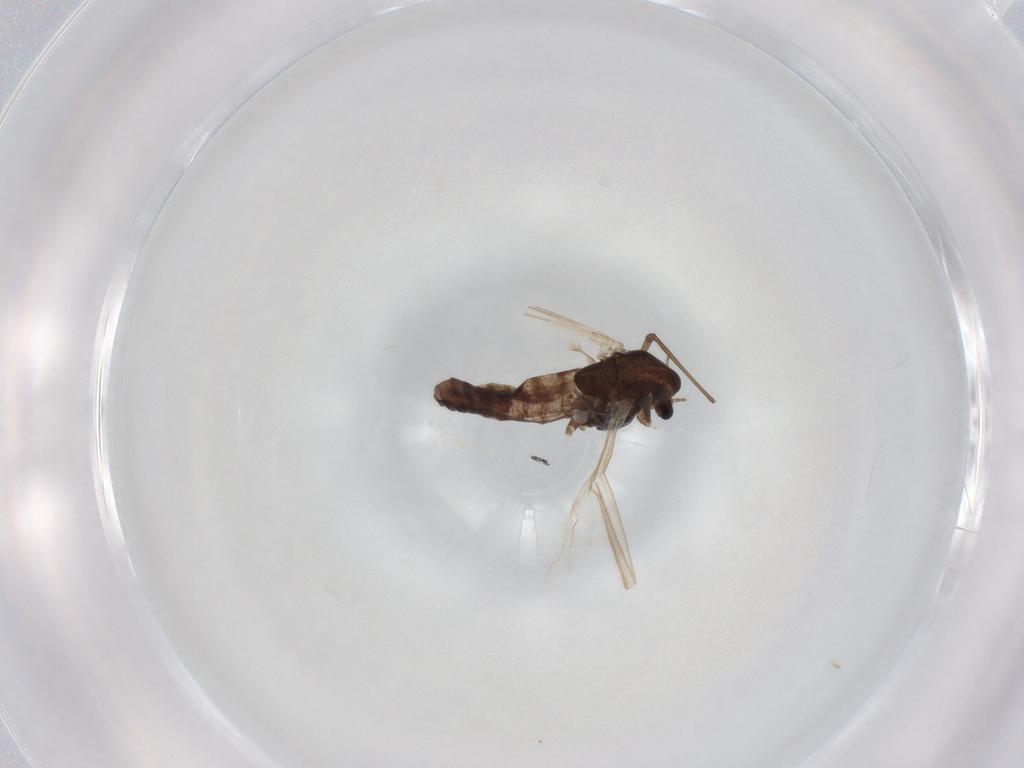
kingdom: Animalia
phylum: Arthropoda
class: Insecta
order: Diptera
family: Chironomidae
